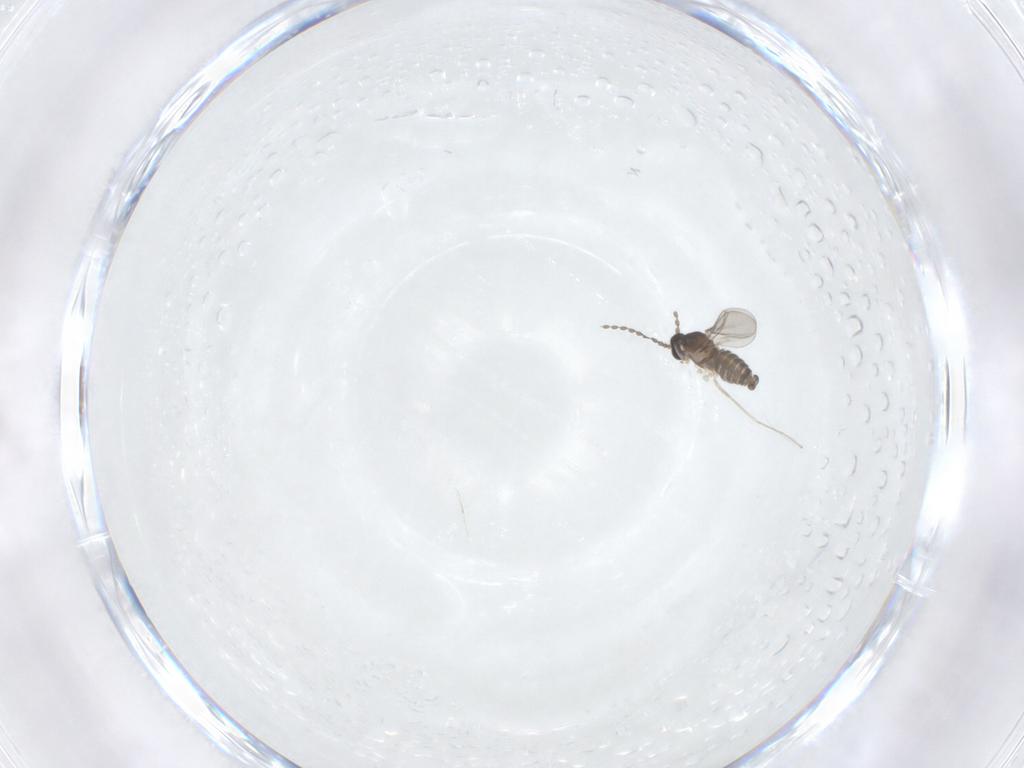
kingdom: Animalia
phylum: Arthropoda
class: Insecta
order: Diptera
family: Cecidomyiidae
